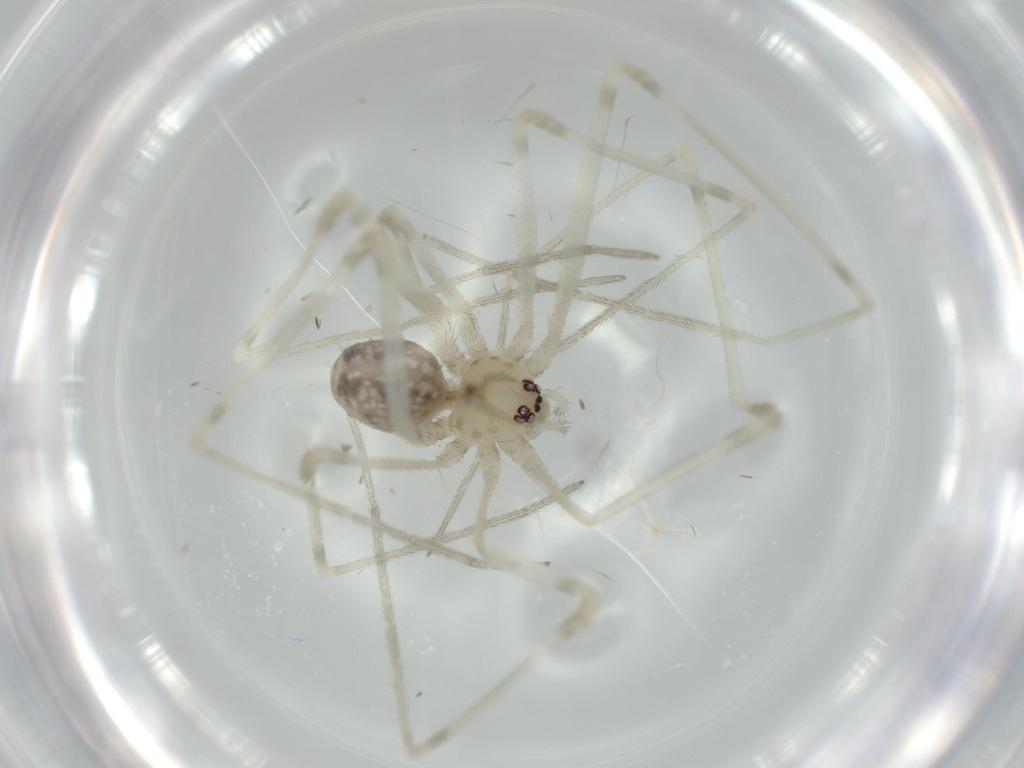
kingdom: Animalia
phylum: Arthropoda
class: Arachnida
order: Araneae
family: Pholcidae
